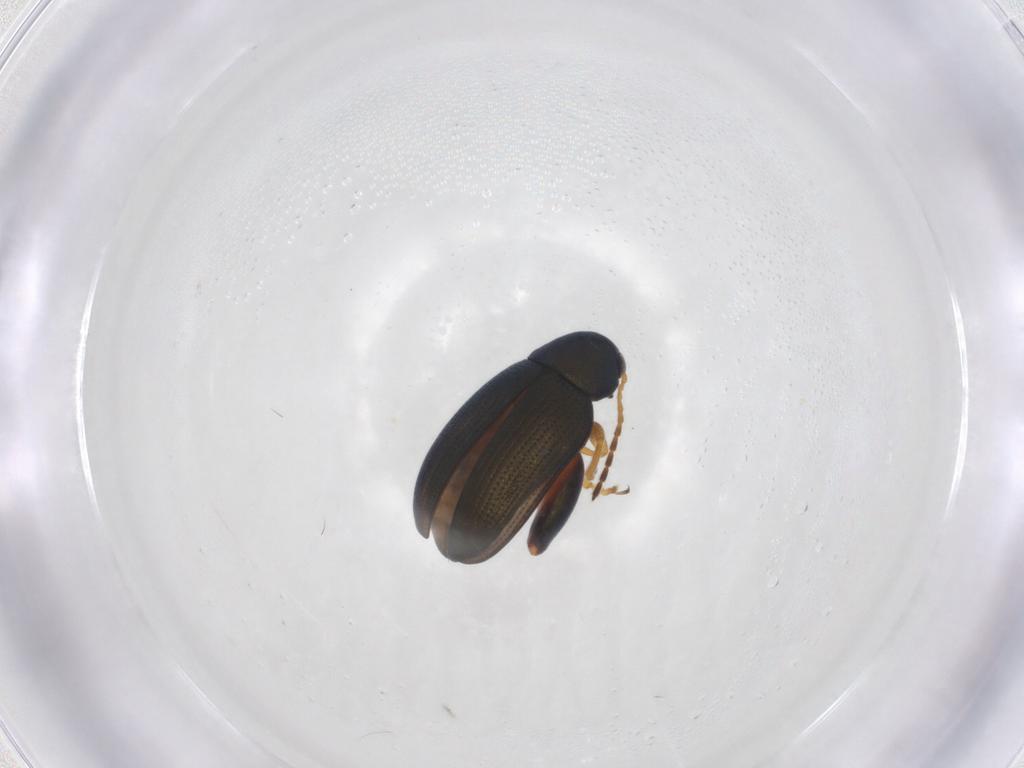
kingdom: Animalia
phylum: Arthropoda
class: Insecta
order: Coleoptera
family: Chrysomelidae
